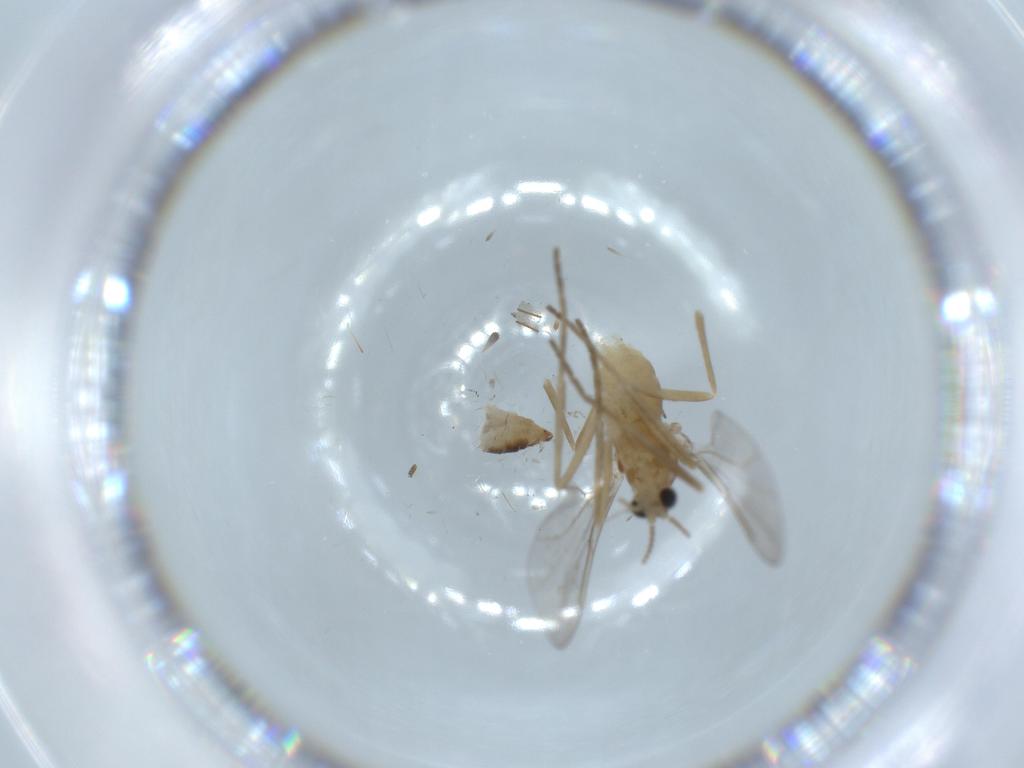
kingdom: Animalia
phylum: Arthropoda
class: Insecta
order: Diptera
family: Cecidomyiidae
